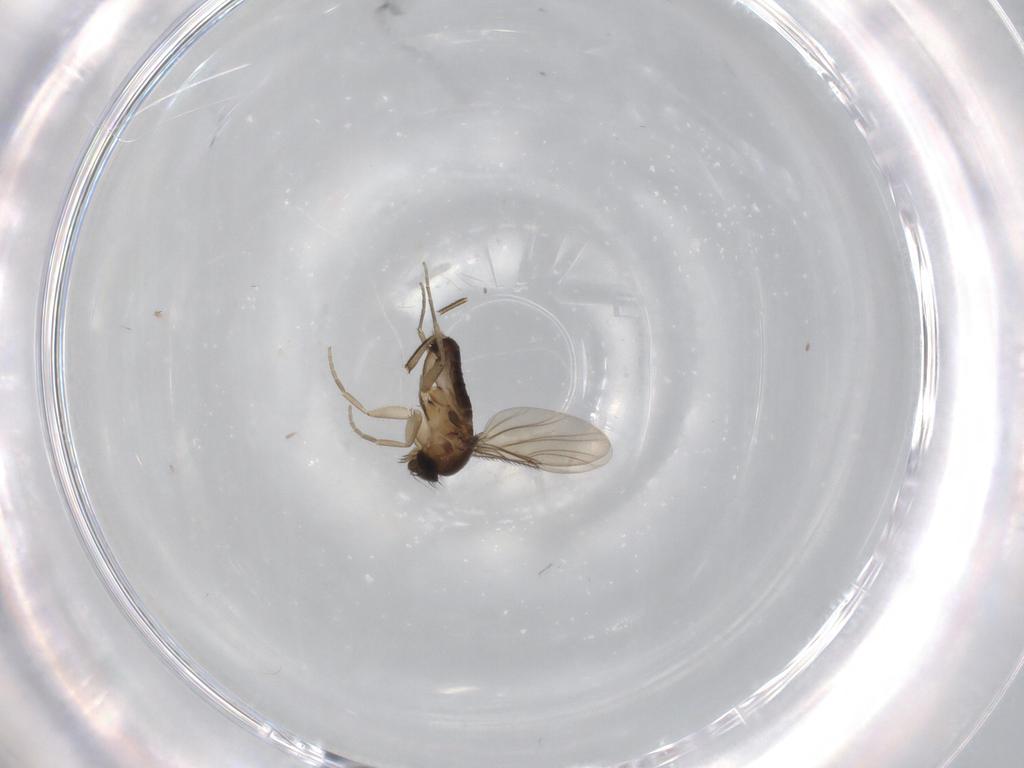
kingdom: Animalia
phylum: Arthropoda
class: Insecta
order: Diptera
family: Phoridae
